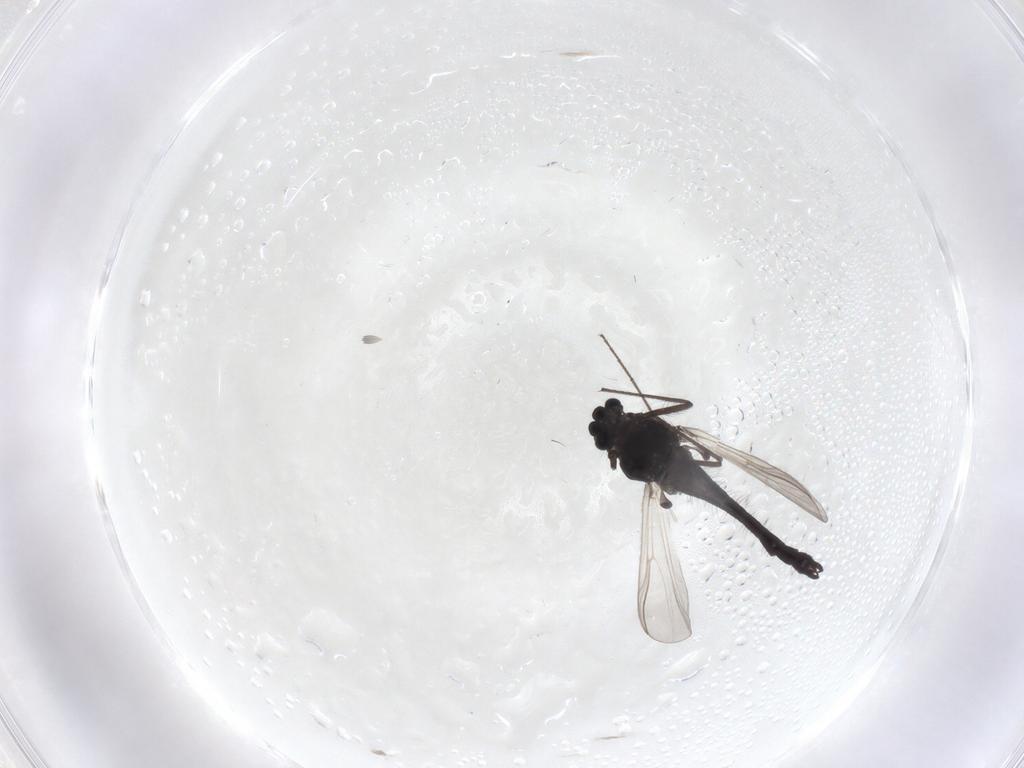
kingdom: Animalia
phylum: Arthropoda
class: Insecta
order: Diptera
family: Chironomidae
